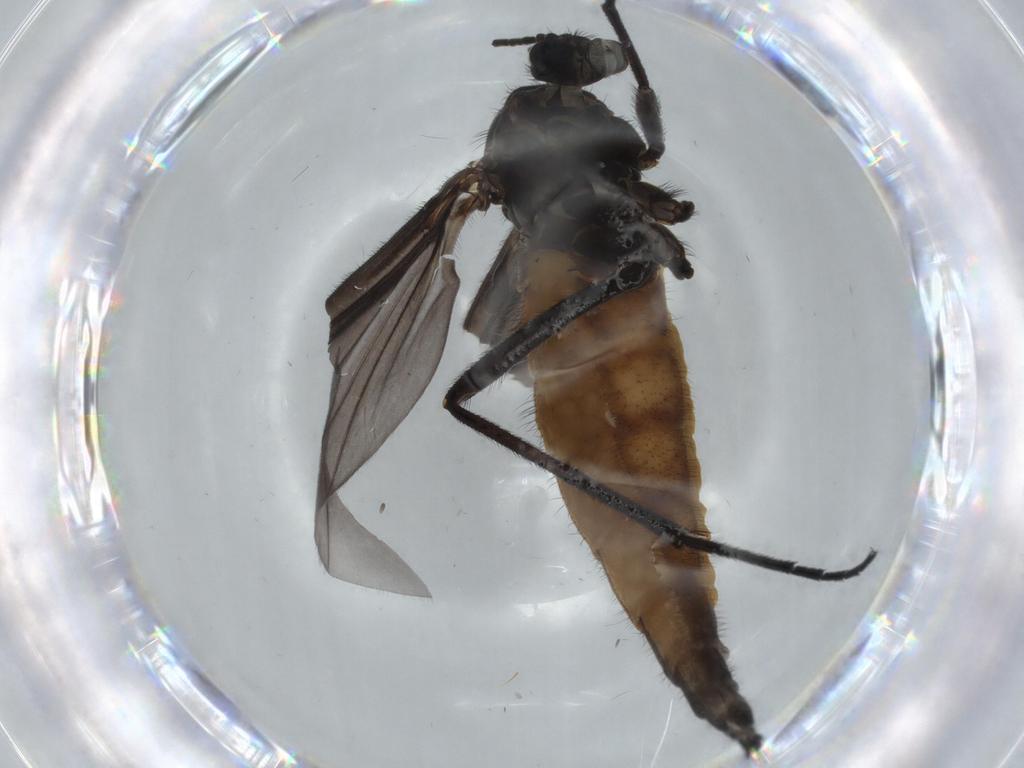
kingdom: Animalia
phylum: Arthropoda
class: Insecta
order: Diptera
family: Chironomidae
